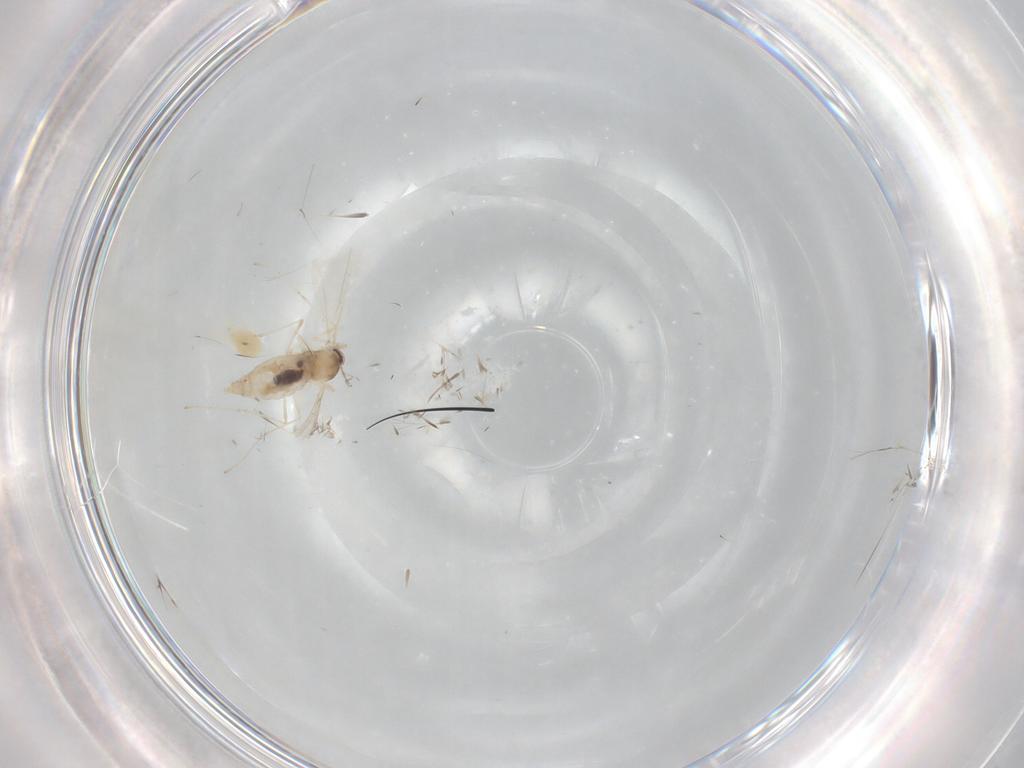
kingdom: Animalia
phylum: Arthropoda
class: Insecta
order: Diptera
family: Cecidomyiidae
